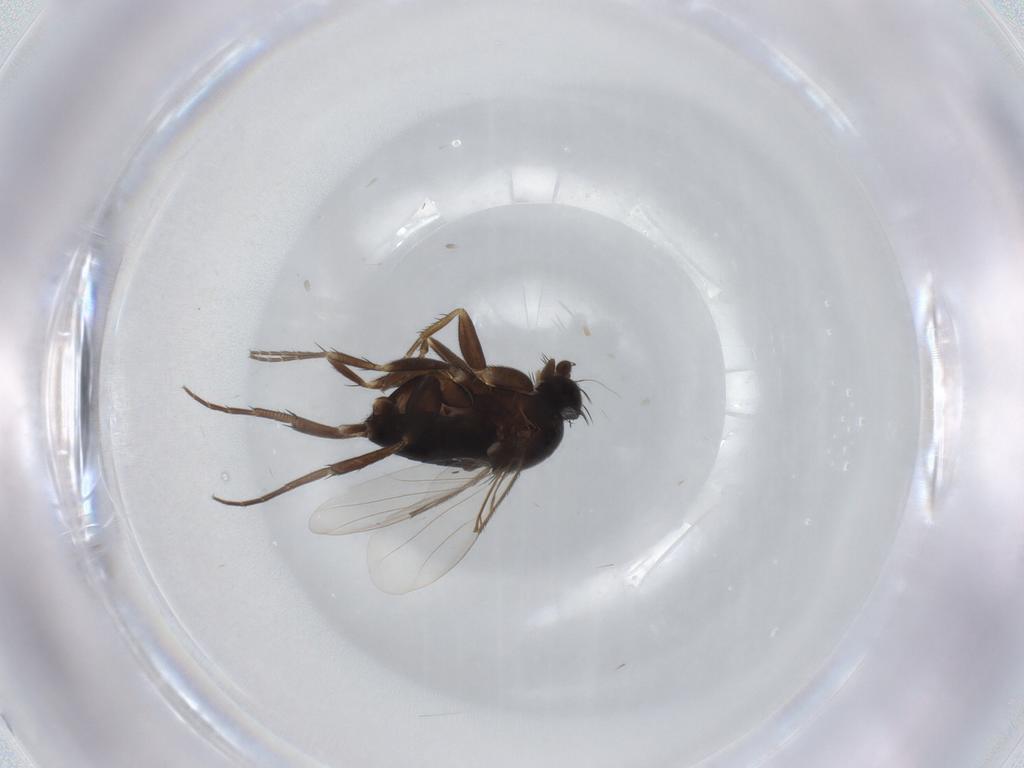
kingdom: Animalia
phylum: Arthropoda
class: Insecta
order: Diptera
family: Phoridae
